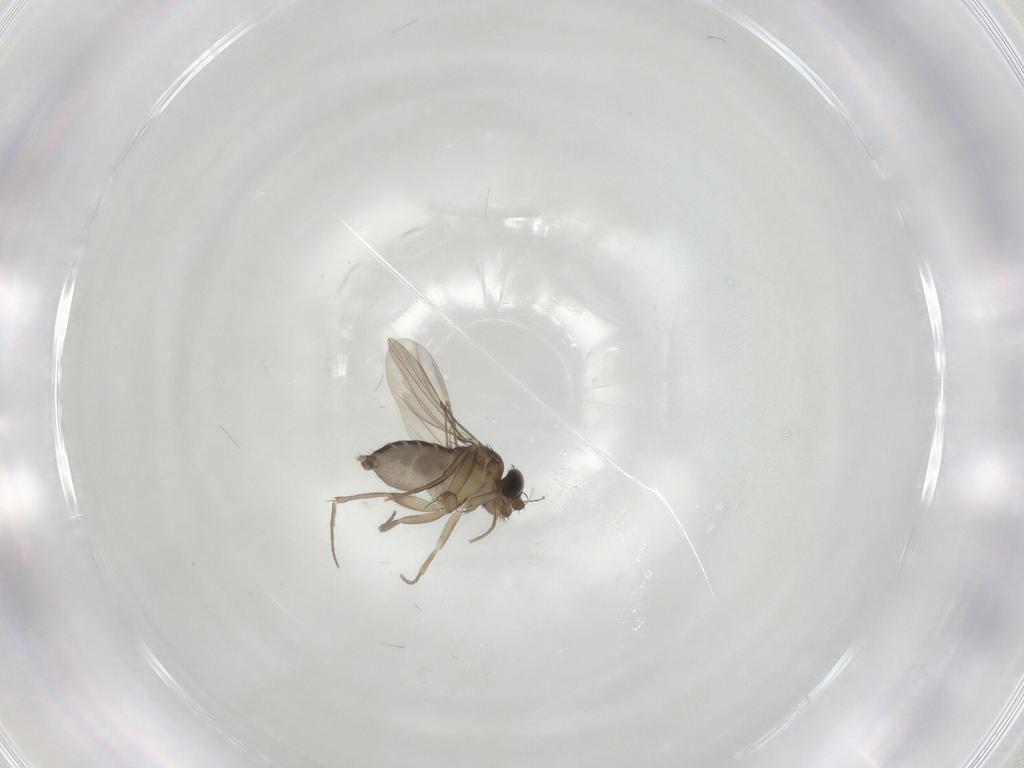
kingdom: Animalia
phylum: Arthropoda
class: Insecta
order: Diptera
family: Phoridae
